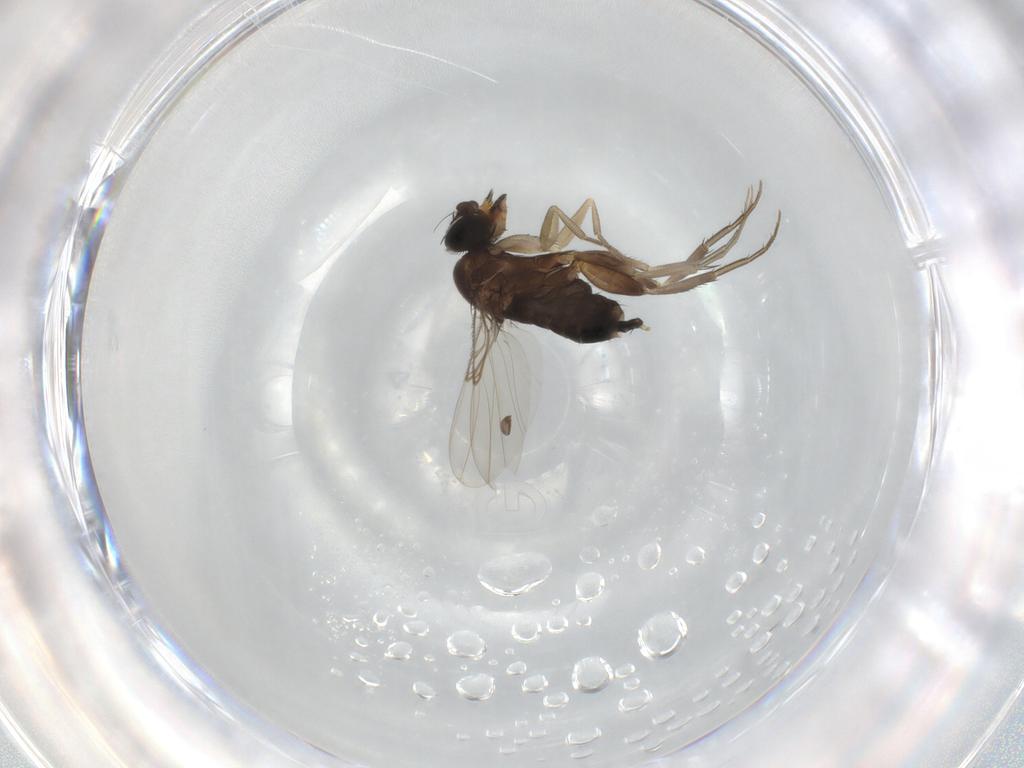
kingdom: Animalia
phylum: Arthropoda
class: Insecta
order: Diptera
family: Phoridae
